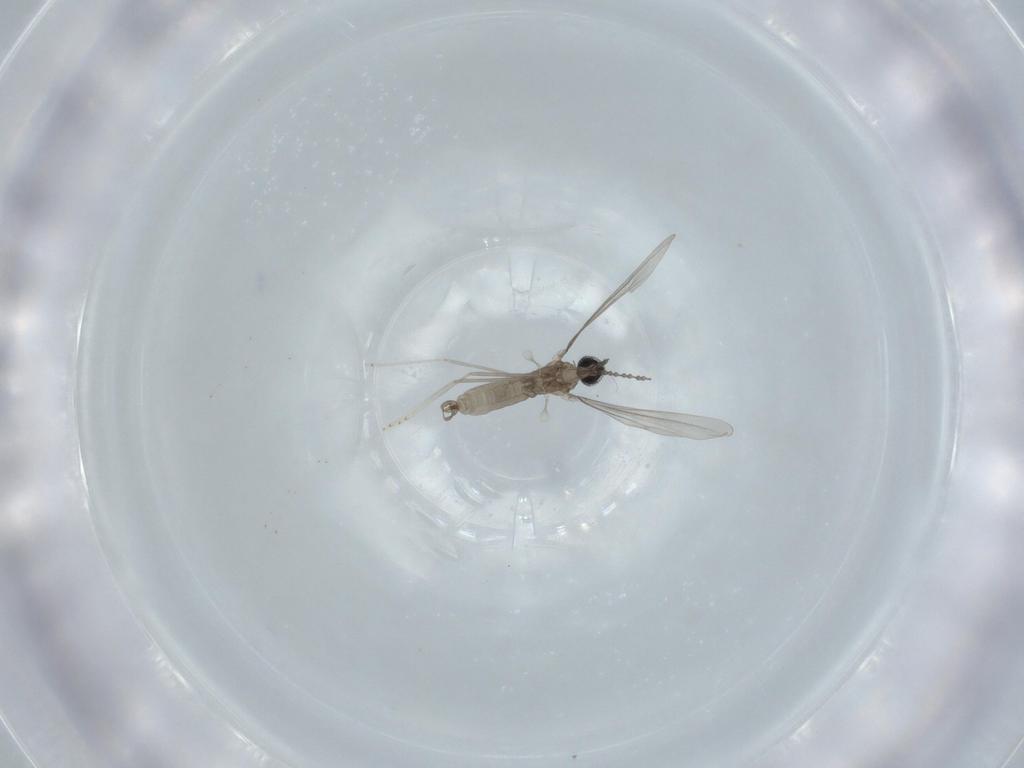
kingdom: Animalia
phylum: Arthropoda
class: Insecta
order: Diptera
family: Cecidomyiidae
